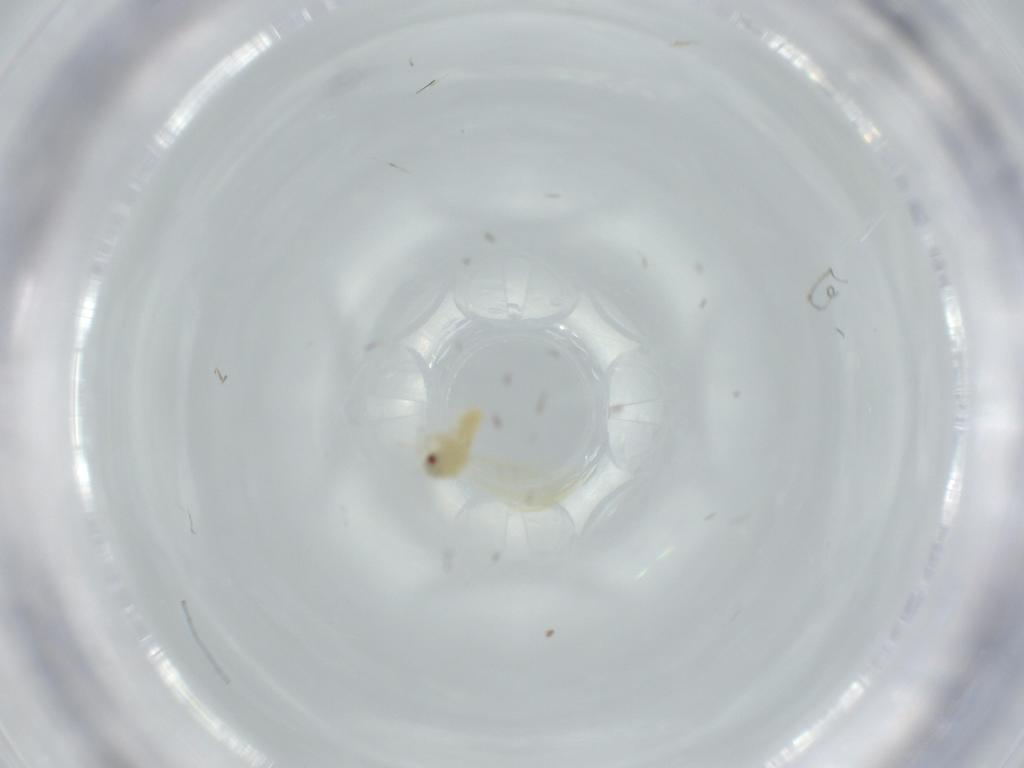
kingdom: Animalia
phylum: Arthropoda
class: Insecta
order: Hemiptera
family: Aleyrodidae
